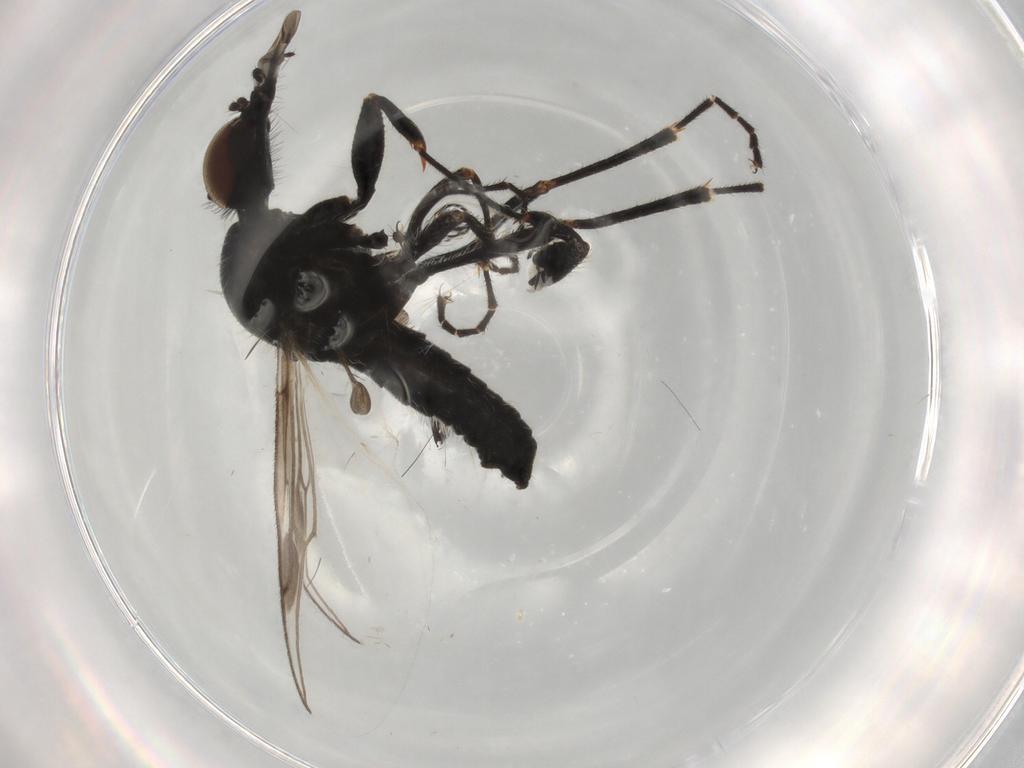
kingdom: Animalia
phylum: Arthropoda
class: Insecta
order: Diptera
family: Bibionidae
